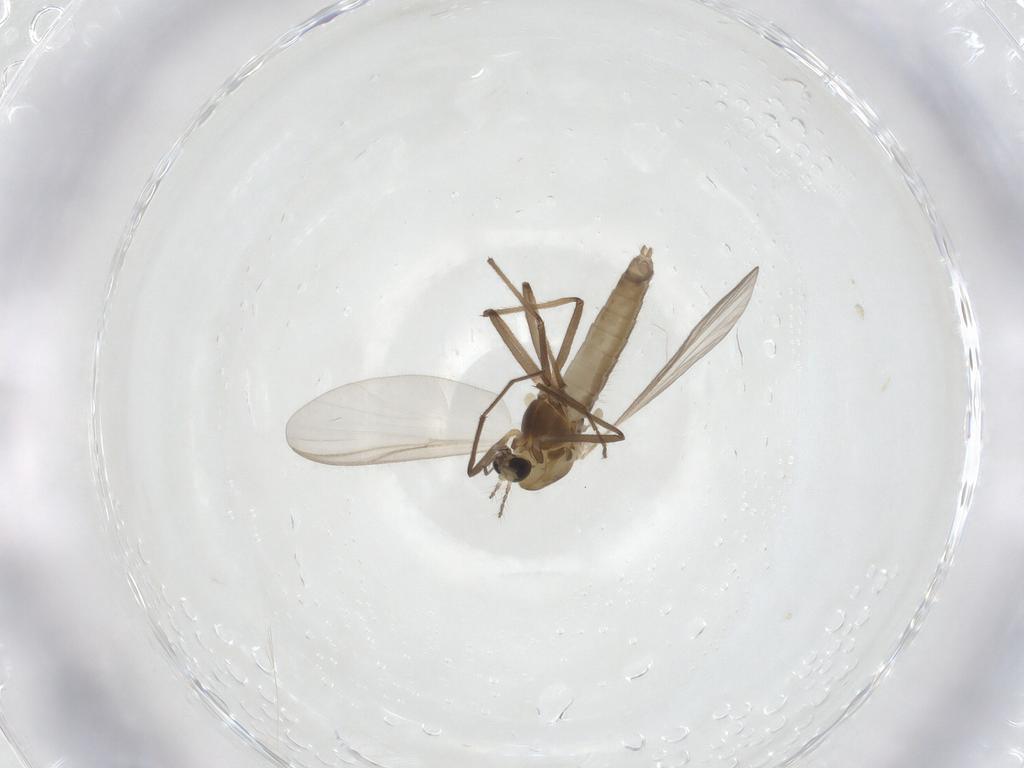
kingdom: Animalia
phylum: Arthropoda
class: Insecta
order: Diptera
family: Chironomidae
